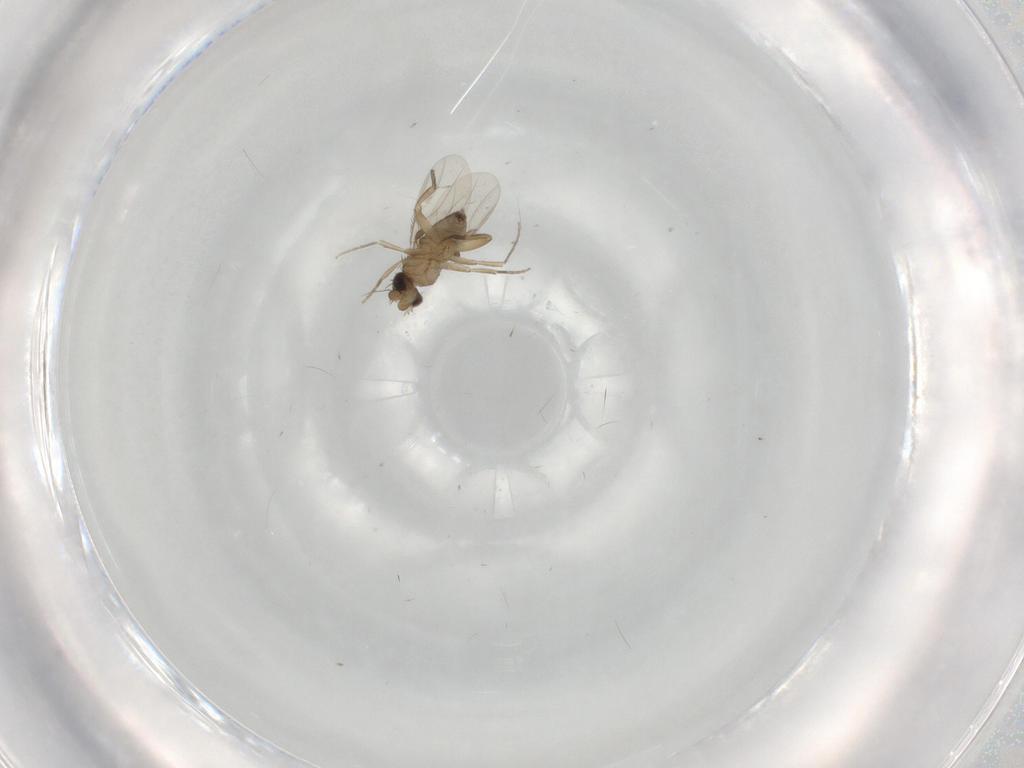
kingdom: Animalia
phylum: Arthropoda
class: Insecta
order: Diptera
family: Phoridae
